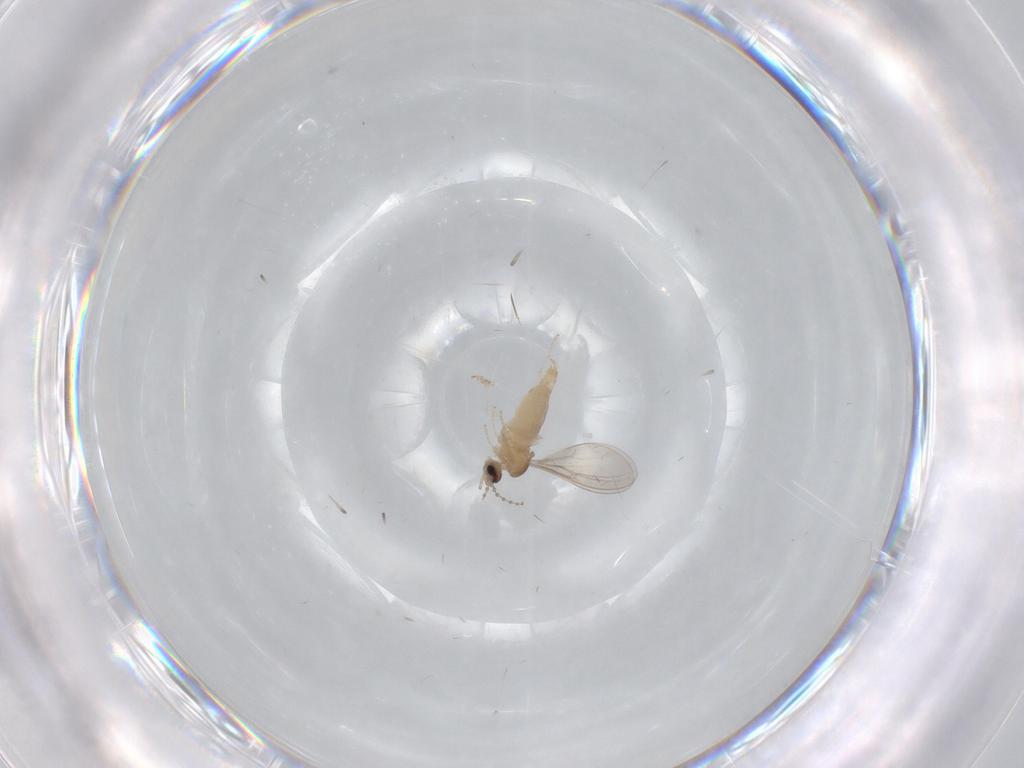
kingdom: Animalia
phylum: Arthropoda
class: Insecta
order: Diptera
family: Cecidomyiidae
